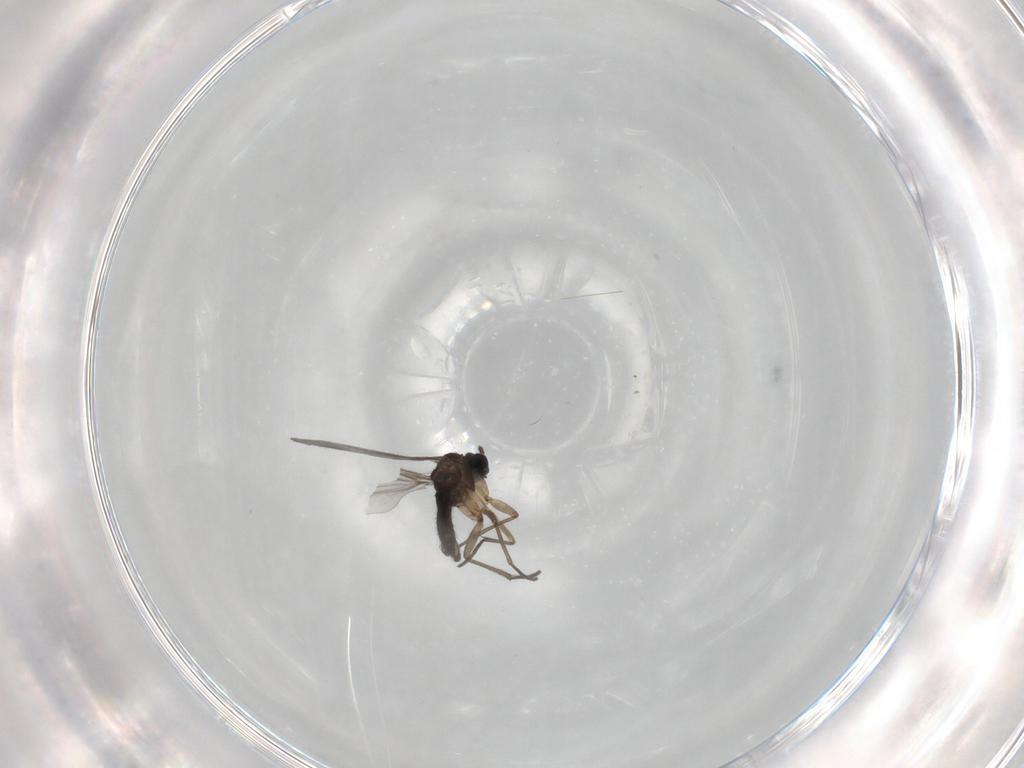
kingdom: Animalia
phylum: Arthropoda
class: Insecta
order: Diptera
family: Sciaridae
